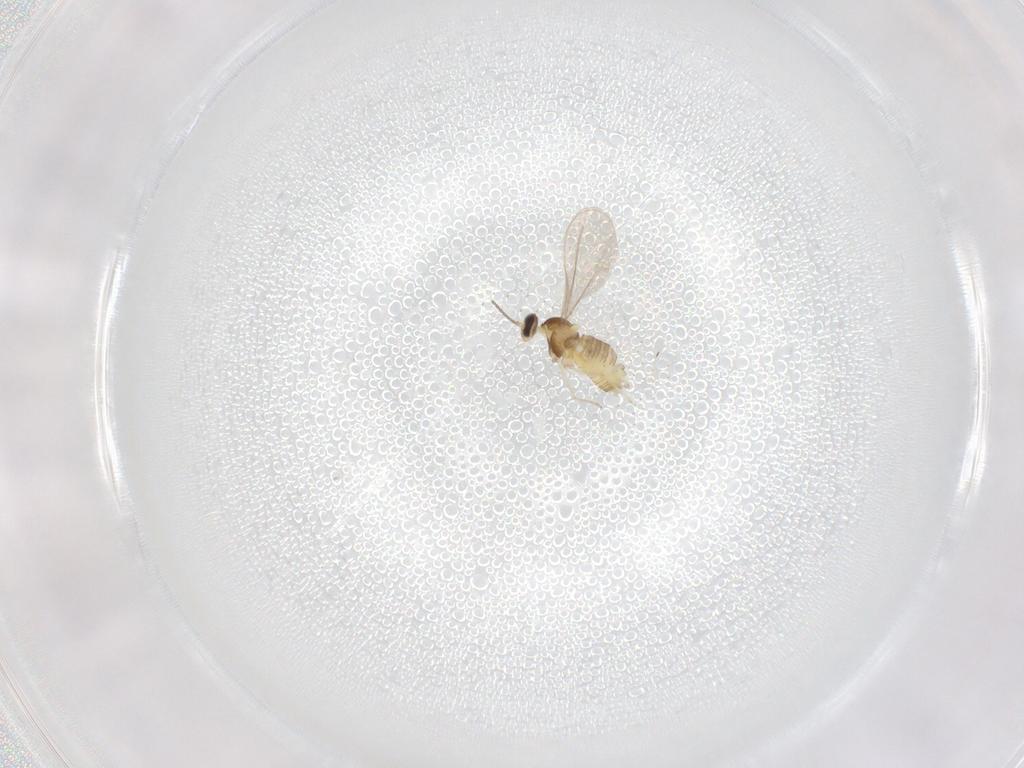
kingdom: Animalia
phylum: Arthropoda
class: Insecta
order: Diptera
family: Cecidomyiidae
